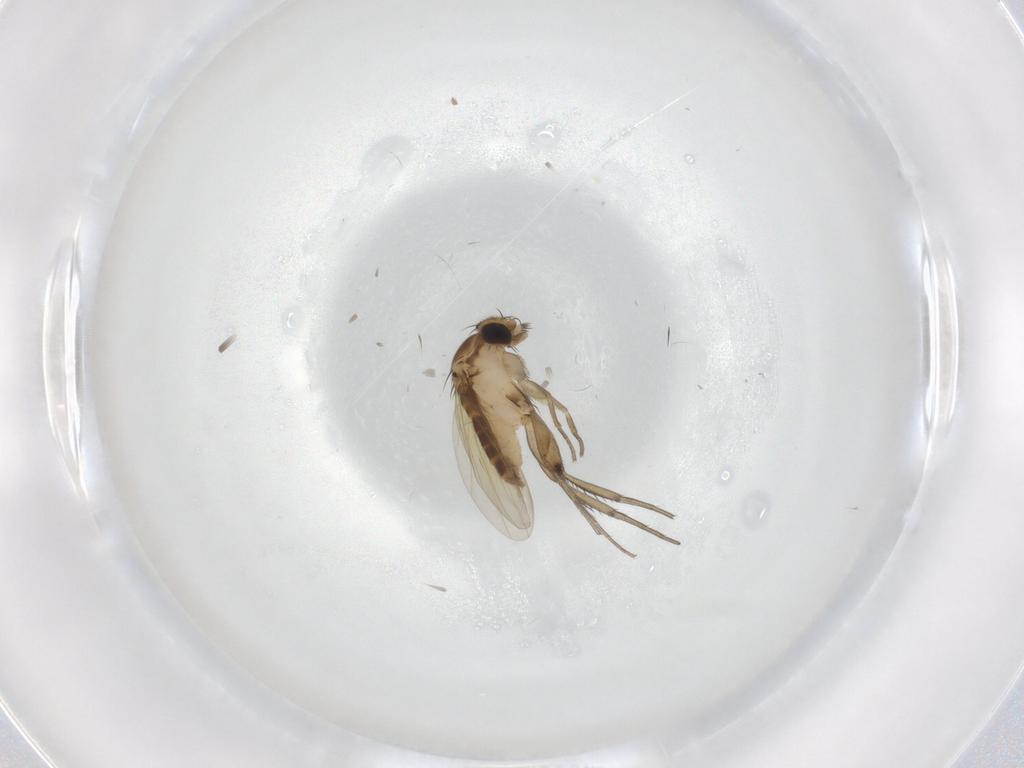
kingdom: Animalia
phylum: Arthropoda
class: Insecta
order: Diptera
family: Phoridae
